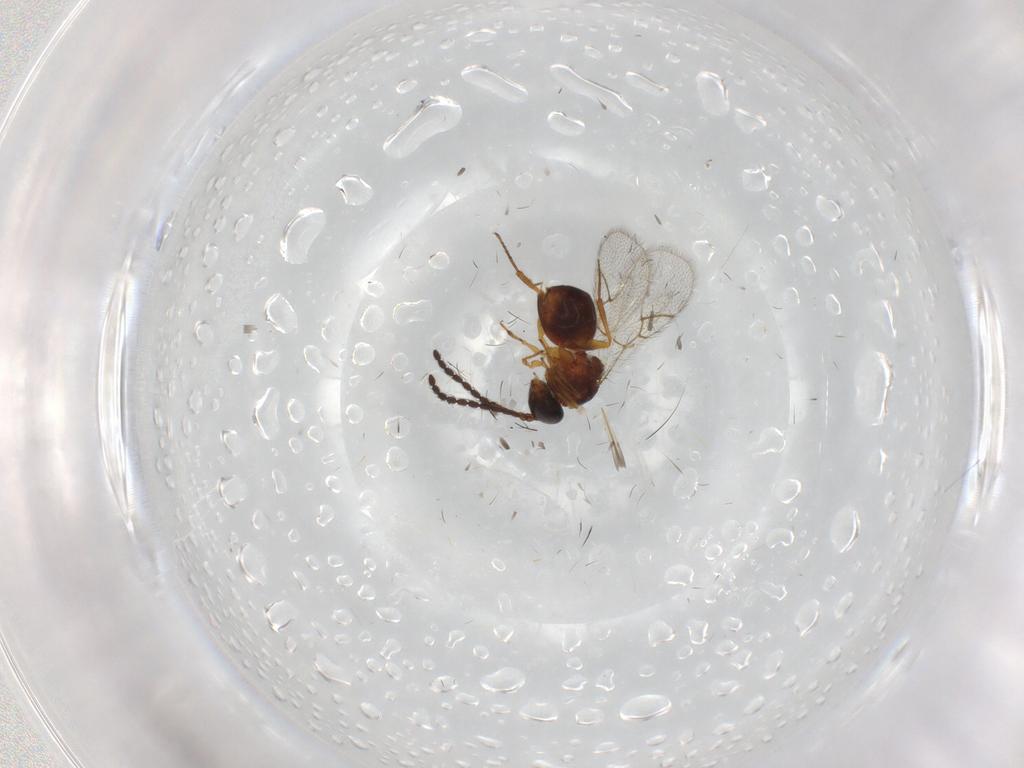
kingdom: Animalia
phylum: Arthropoda
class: Insecta
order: Hymenoptera
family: Figitidae
